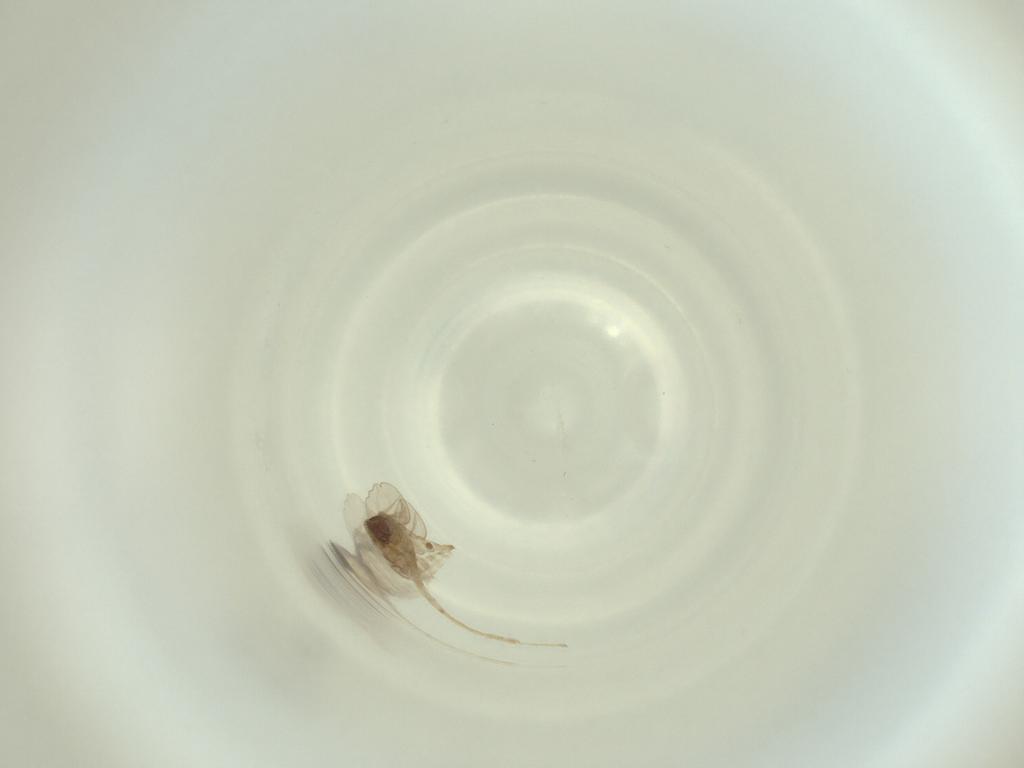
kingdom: Animalia
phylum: Arthropoda
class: Insecta
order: Diptera
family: Cecidomyiidae
